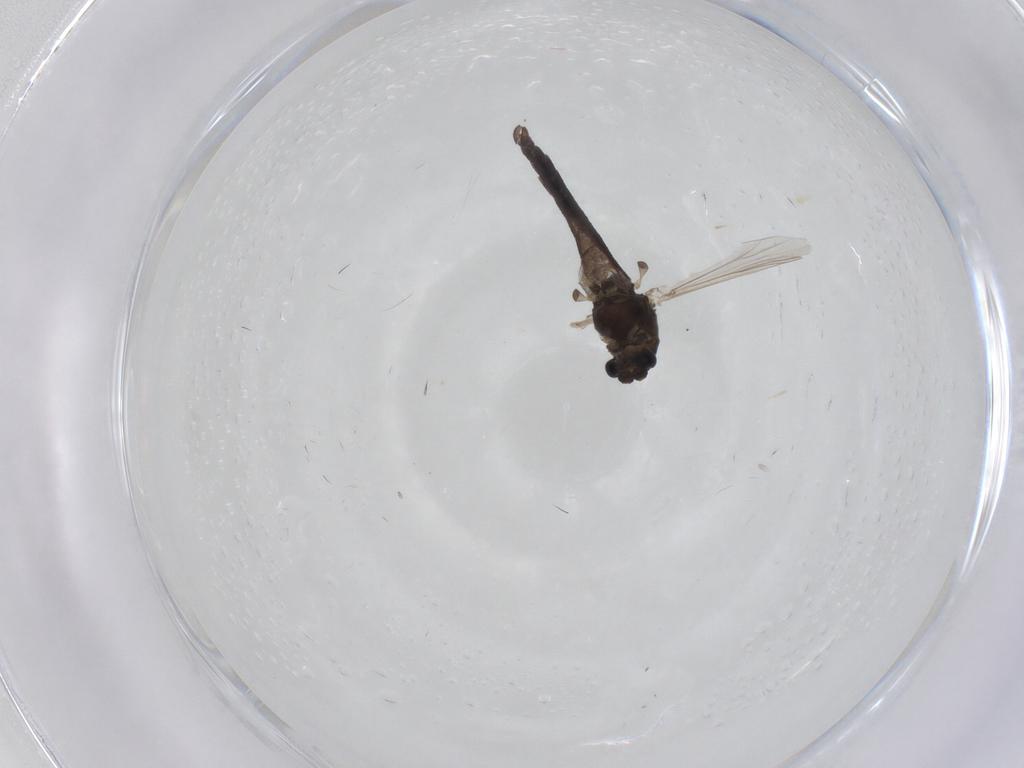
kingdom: Animalia
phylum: Arthropoda
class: Insecta
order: Diptera
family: Chironomidae
